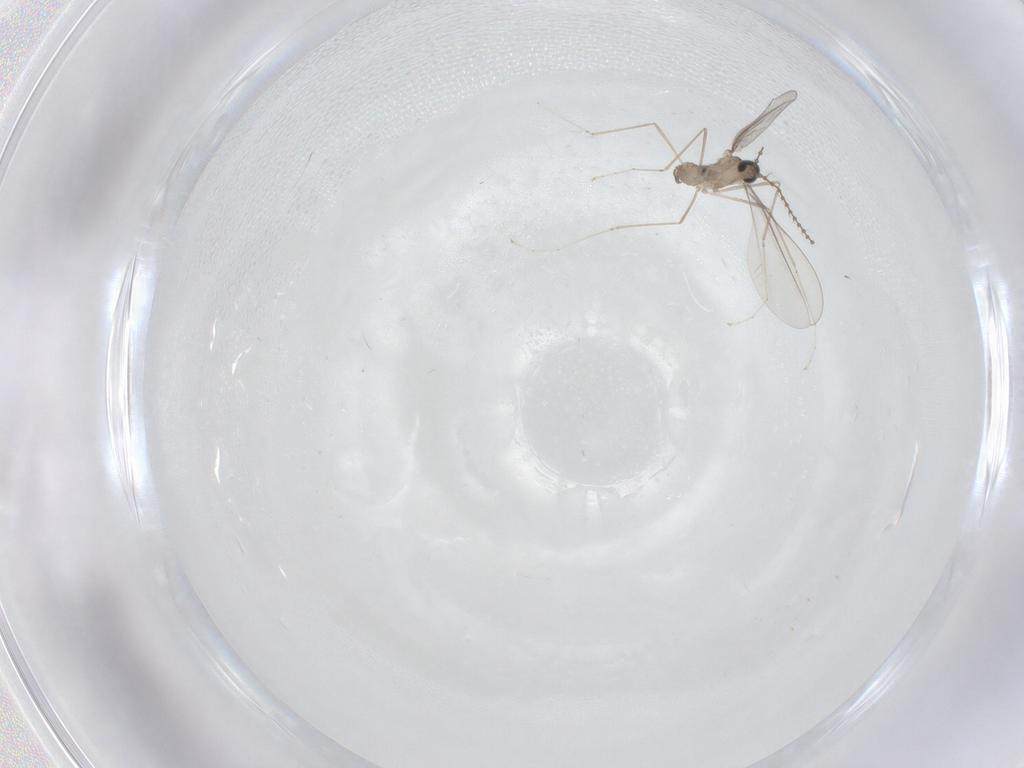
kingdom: Animalia
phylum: Arthropoda
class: Insecta
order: Diptera
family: Cecidomyiidae
